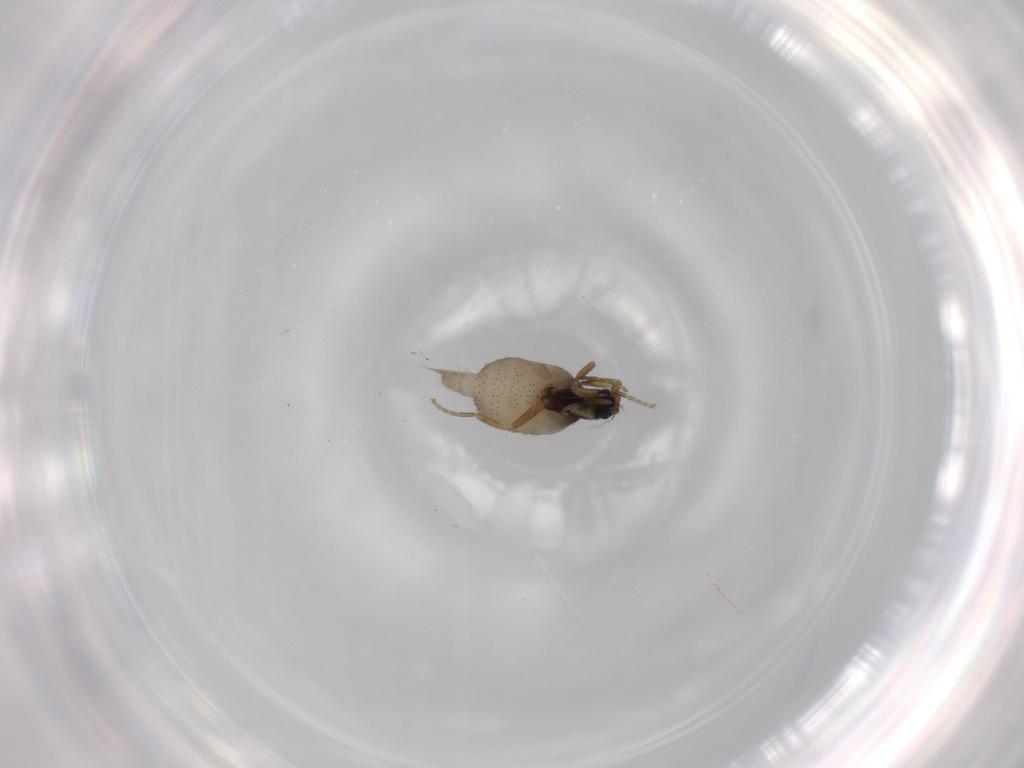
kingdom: Animalia
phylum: Arthropoda
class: Insecta
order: Diptera
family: Phoridae
